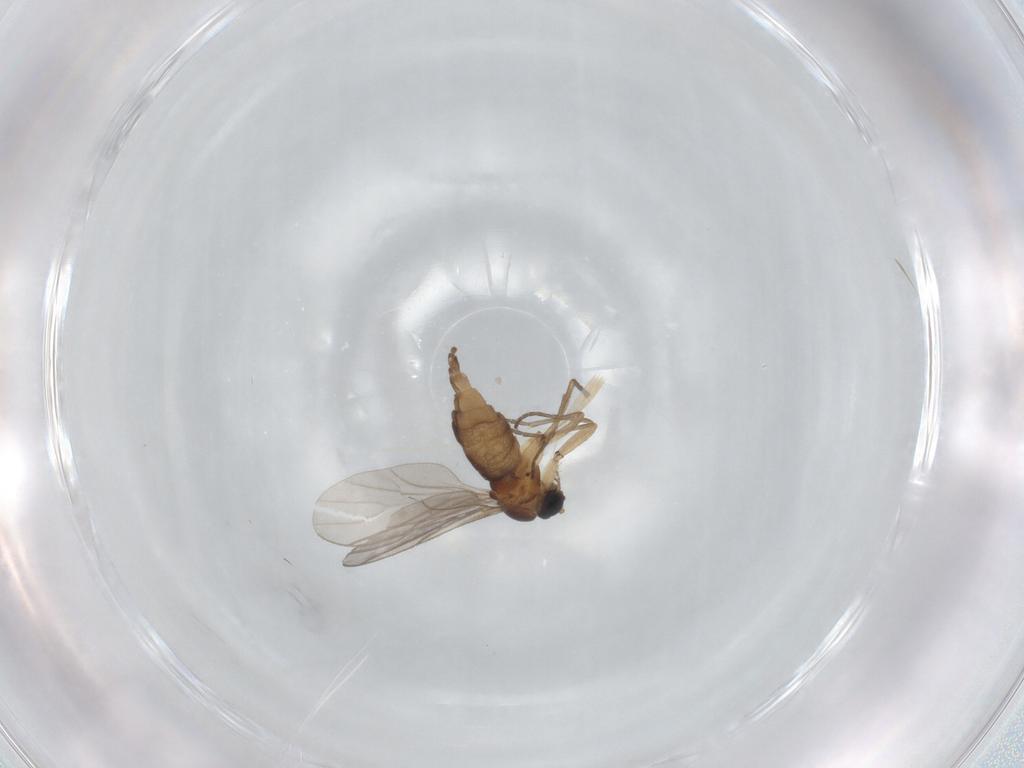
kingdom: Animalia
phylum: Arthropoda
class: Insecta
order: Diptera
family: Sciaridae
